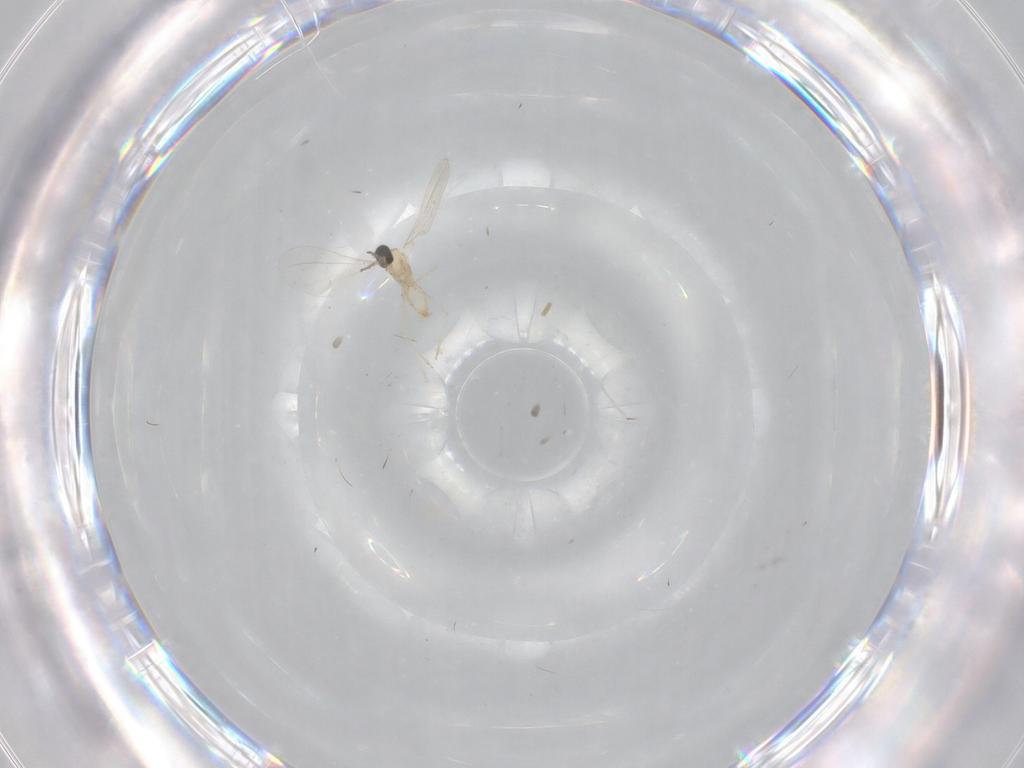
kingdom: Animalia
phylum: Arthropoda
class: Insecta
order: Diptera
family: Cecidomyiidae
